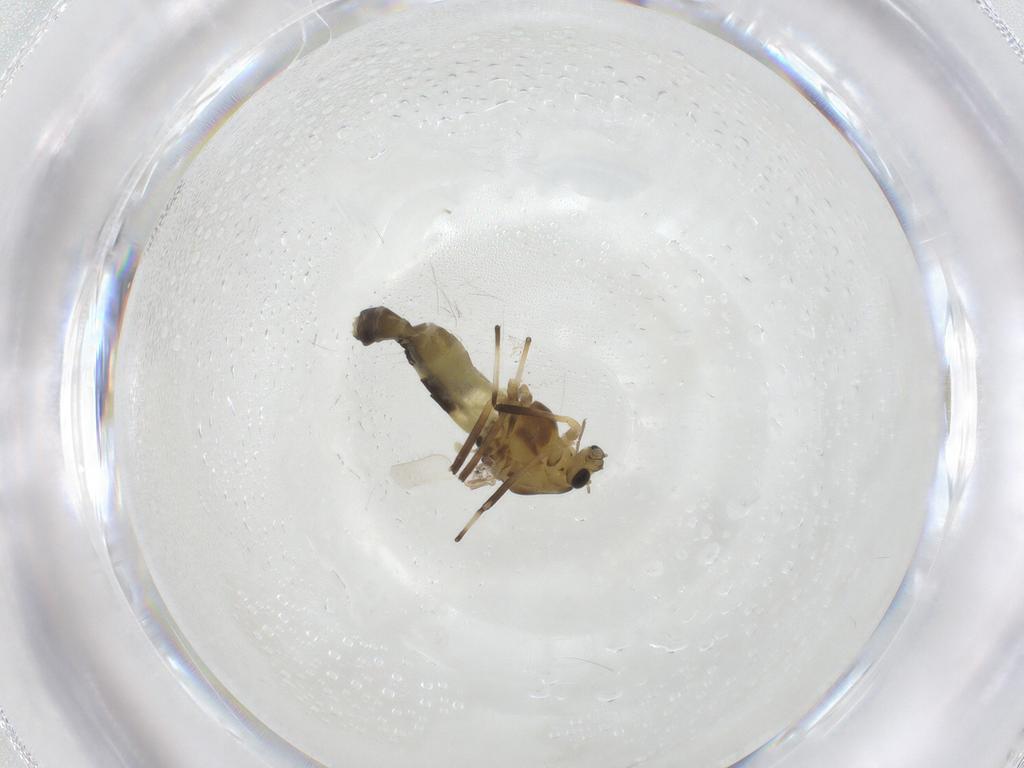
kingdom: Animalia
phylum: Arthropoda
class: Insecta
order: Diptera
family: Chironomidae
